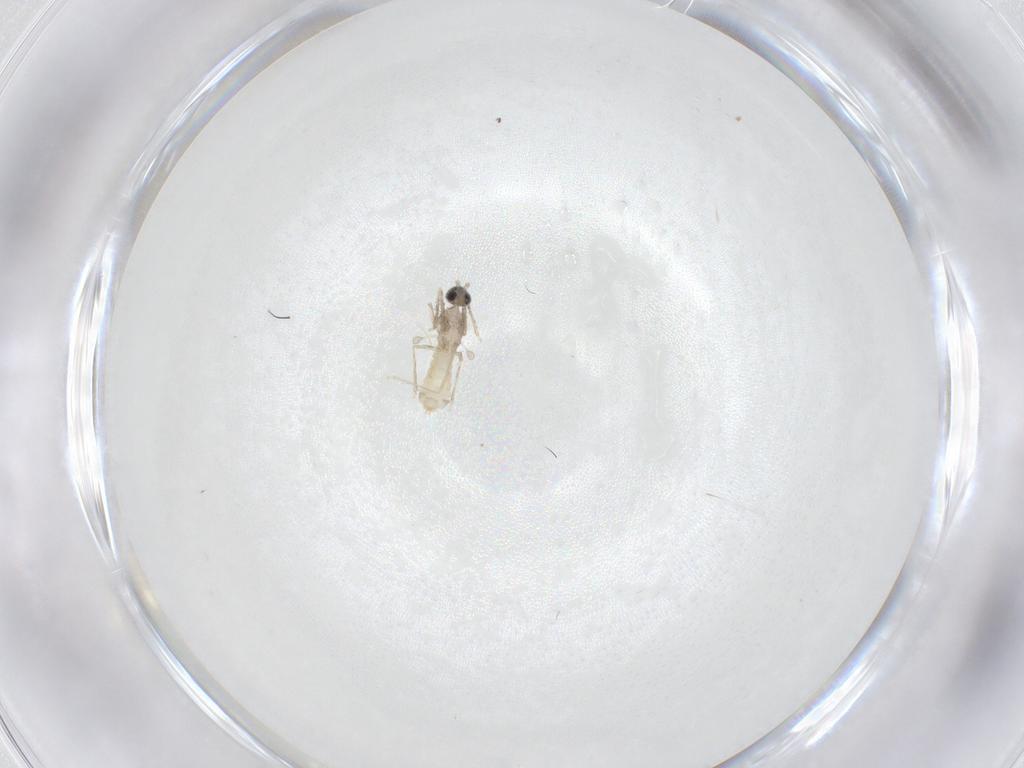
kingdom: Animalia
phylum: Arthropoda
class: Insecta
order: Diptera
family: Cecidomyiidae
